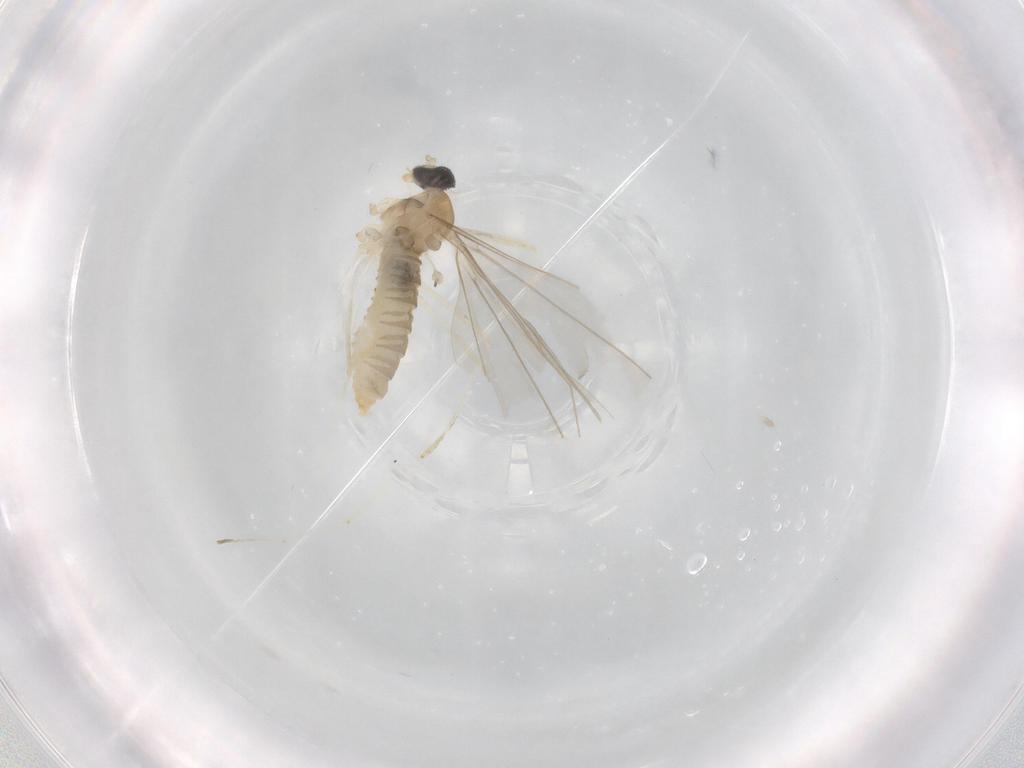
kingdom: Animalia
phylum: Arthropoda
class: Insecta
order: Diptera
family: Cecidomyiidae
